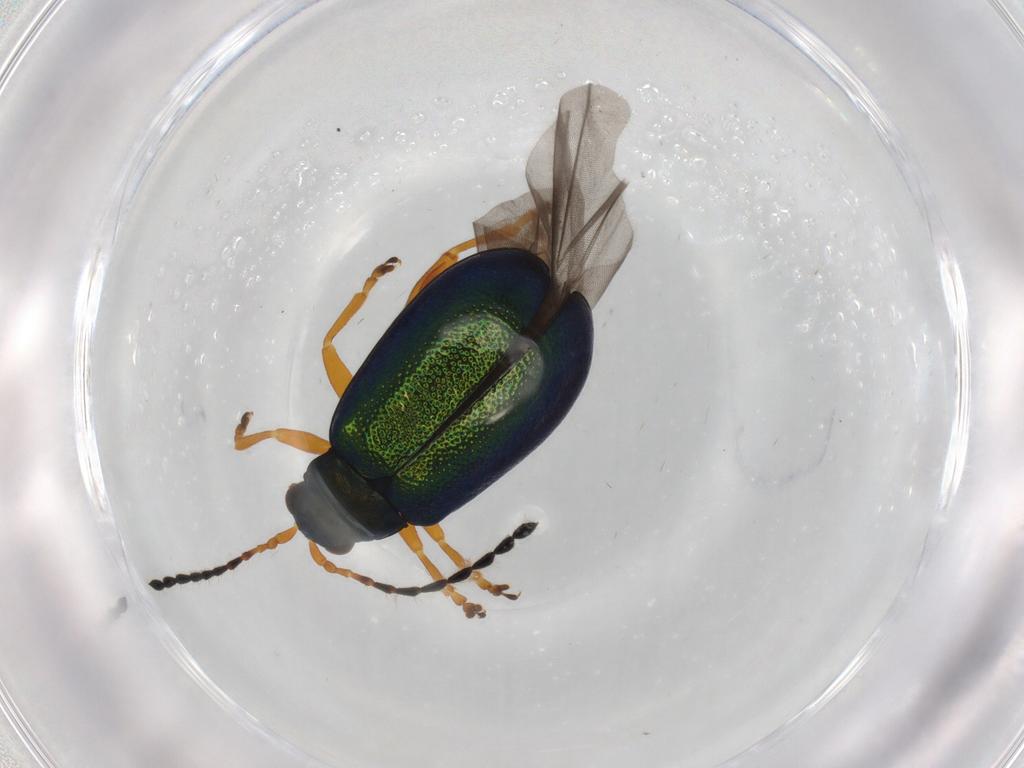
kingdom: Animalia
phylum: Arthropoda
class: Insecta
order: Coleoptera
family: Chrysomelidae
